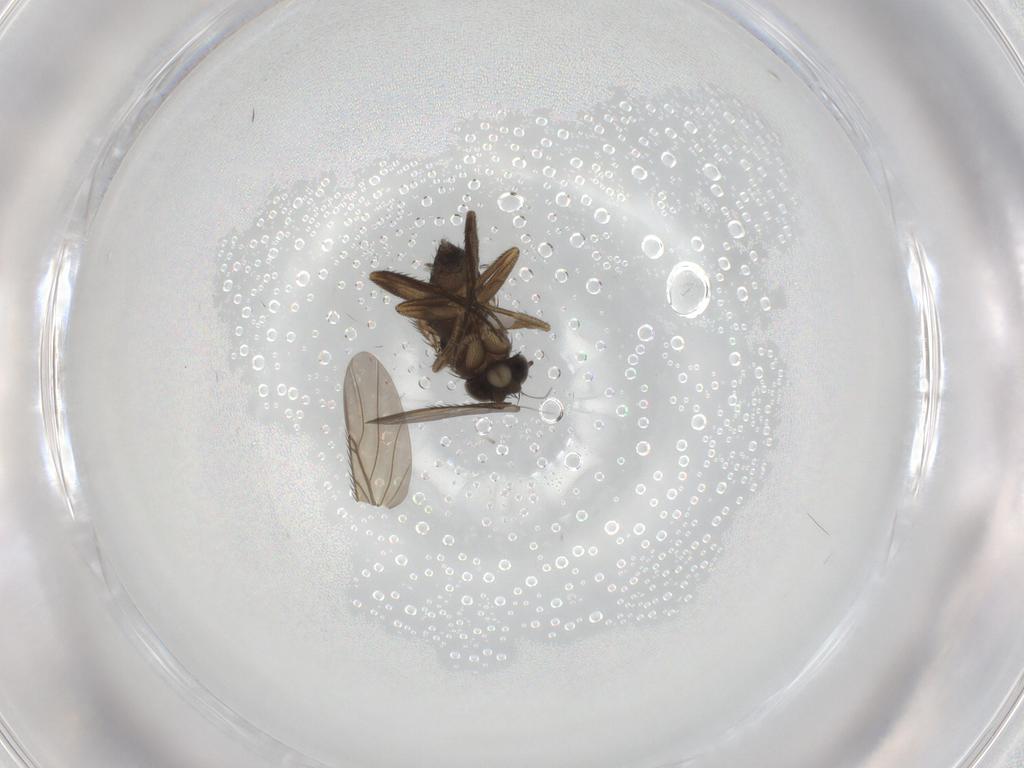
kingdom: Animalia
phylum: Arthropoda
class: Insecta
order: Diptera
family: Phoridae
